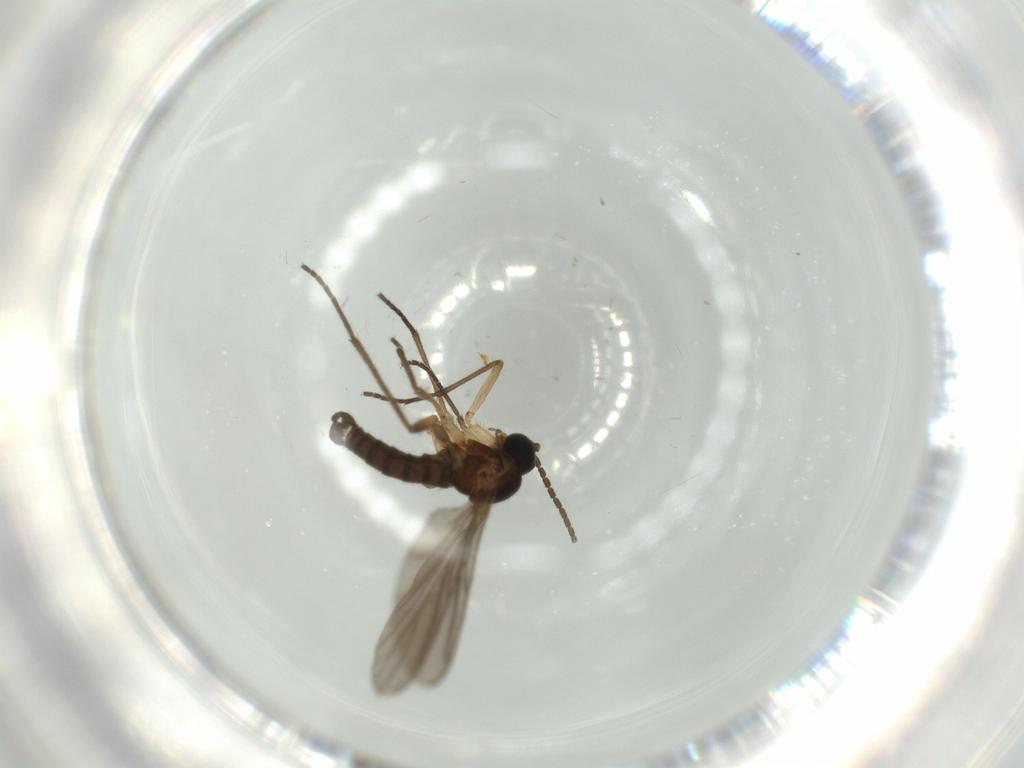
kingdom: Animalia
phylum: Arthropoda
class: Insecta
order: Diptera
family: Sciaridae
